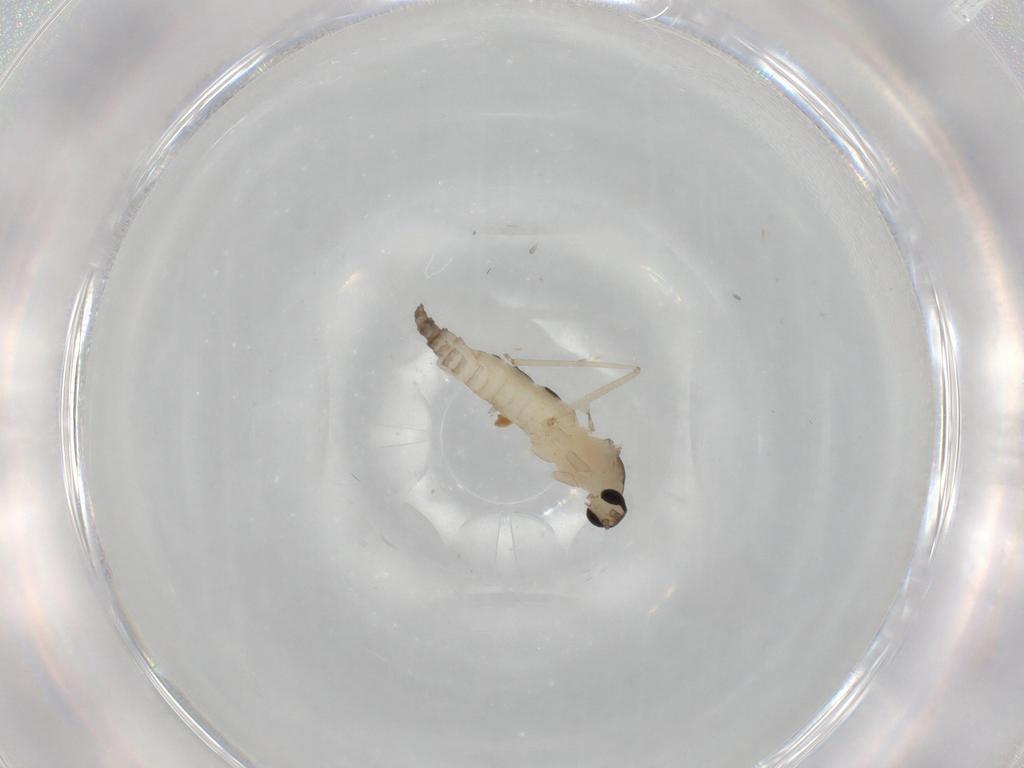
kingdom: Animalia
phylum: Arthropoda
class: Insecta
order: Diptera
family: Cecidomyiidae
